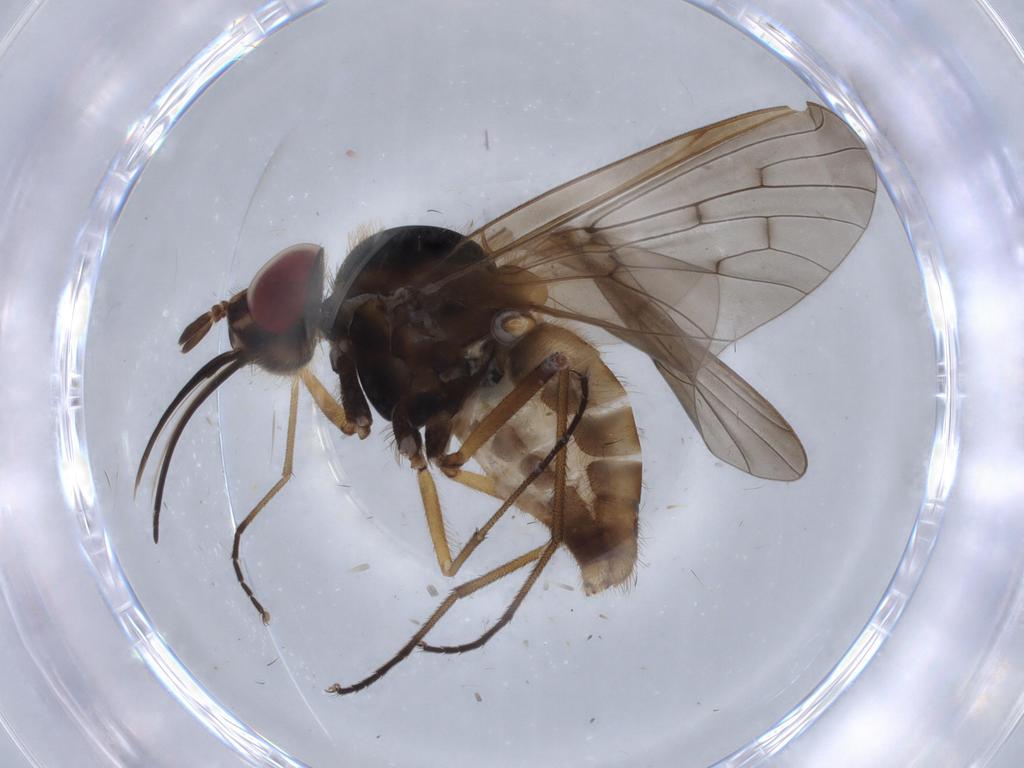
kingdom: Animalia
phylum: Arthropoda
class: Insecta
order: Diptera
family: Bombyliidae
